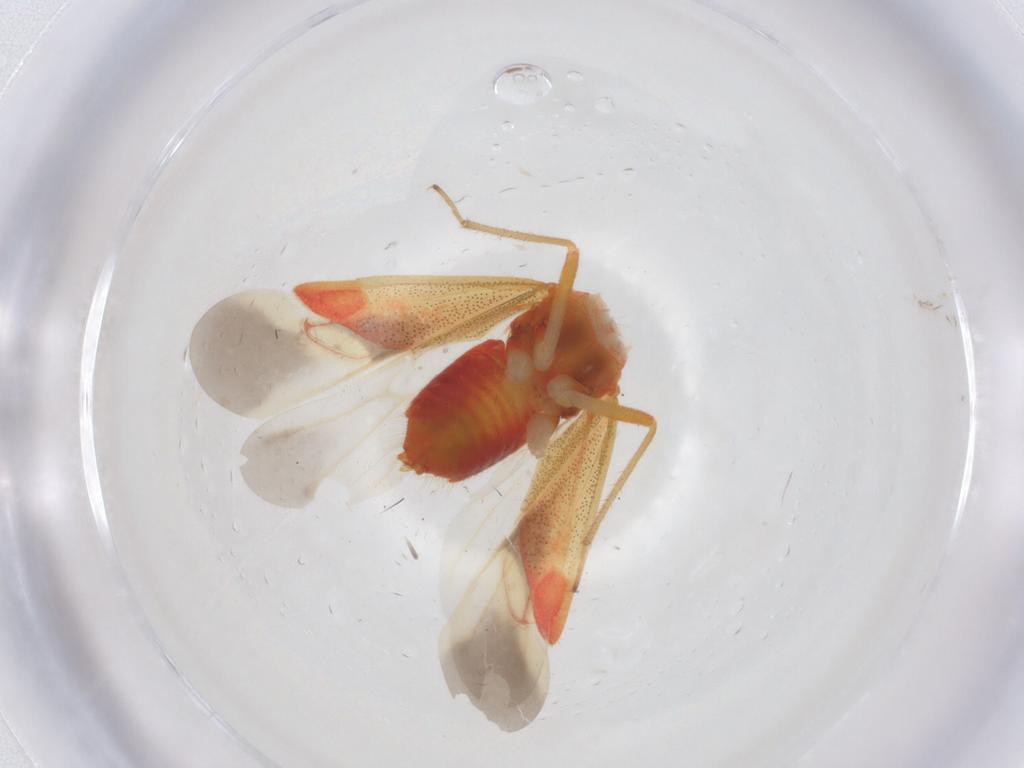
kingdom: Animalia
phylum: Arthropoda
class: Insecta
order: Hemiptera
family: Miridae
